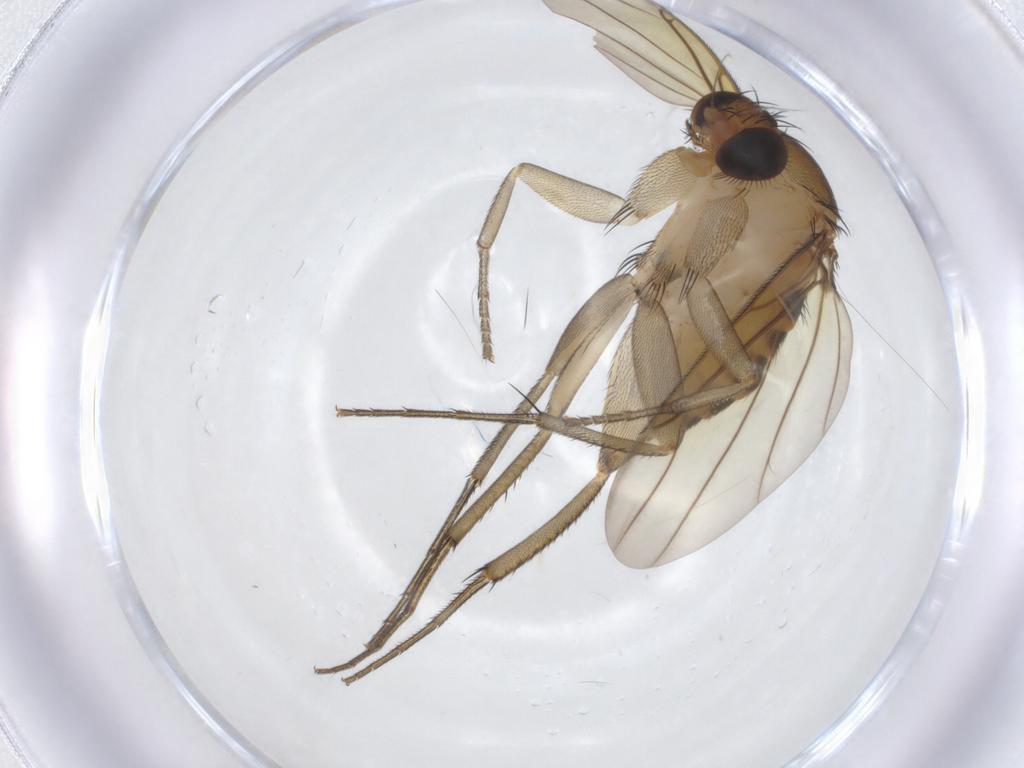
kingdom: Animalia
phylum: Arthropoda
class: Insecta
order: Diptera
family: Phoridae
